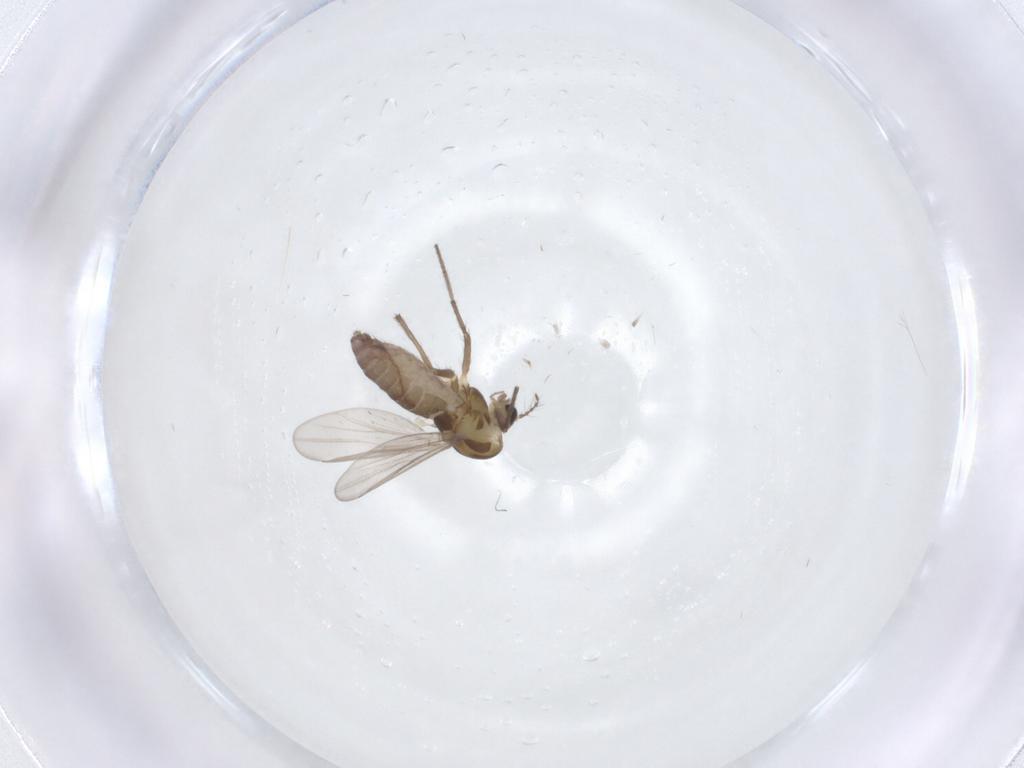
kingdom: Animalia
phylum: Arthropoda
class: Insecta
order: Diptera
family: Chironomidae
